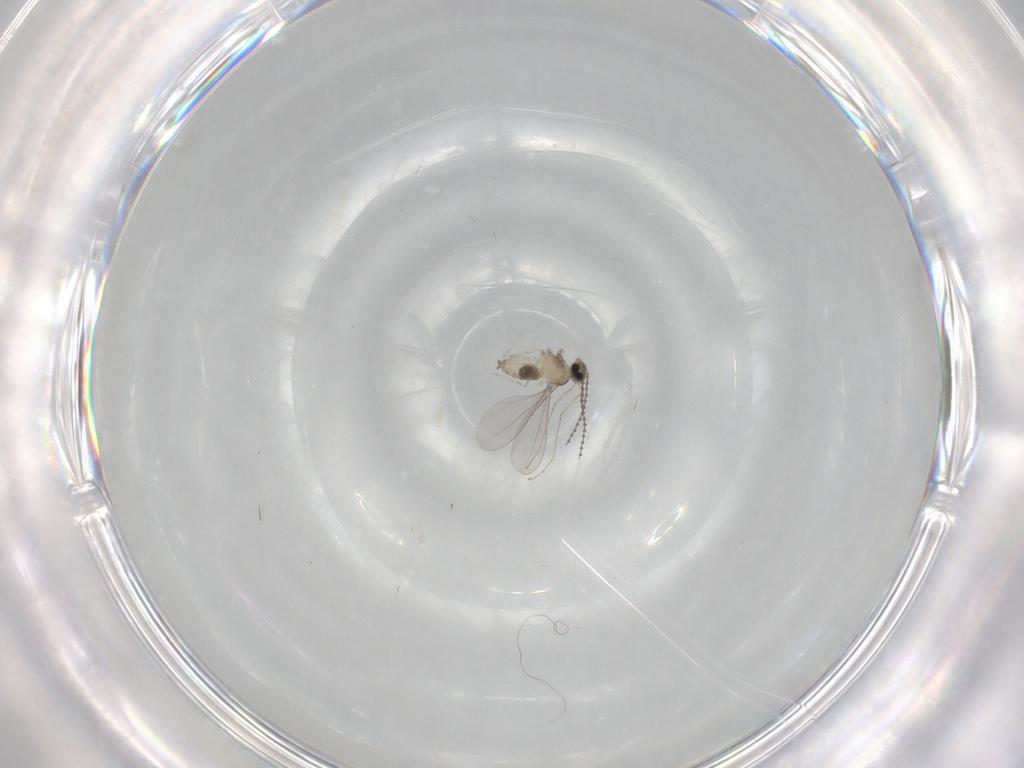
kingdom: Animalia
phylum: Arthropoda
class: Insecta
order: Diptera
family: Cecidomyiidae
